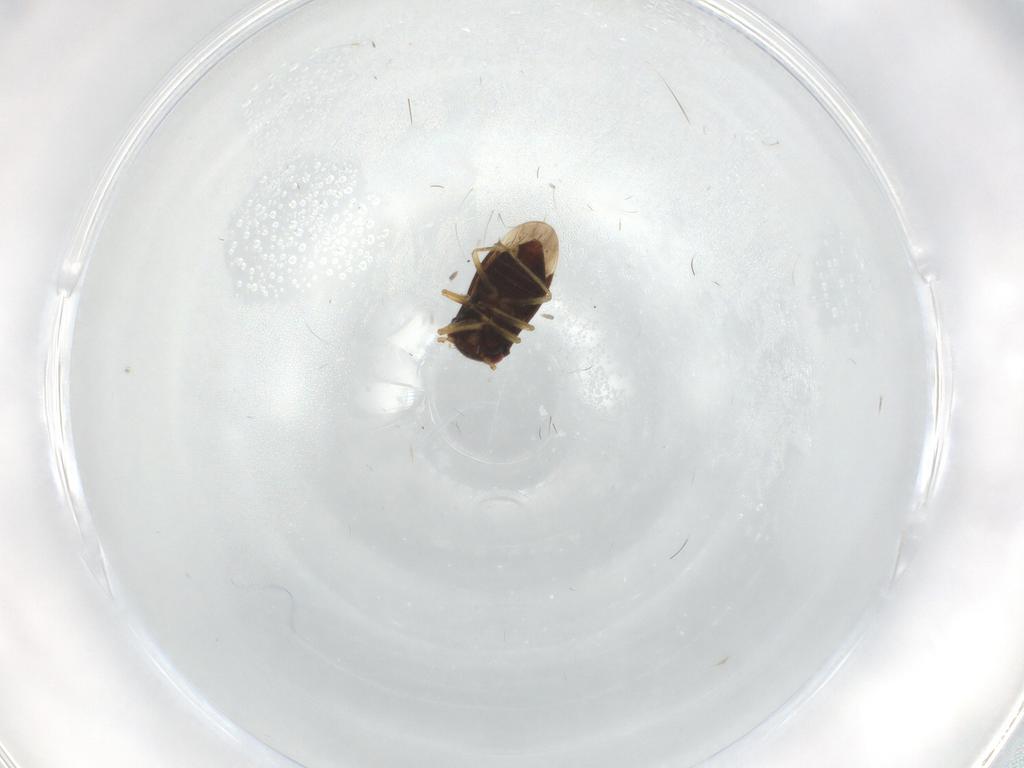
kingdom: Animalia
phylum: Arthropoda
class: Insecta
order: Hemiptera
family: Schizopteridae
